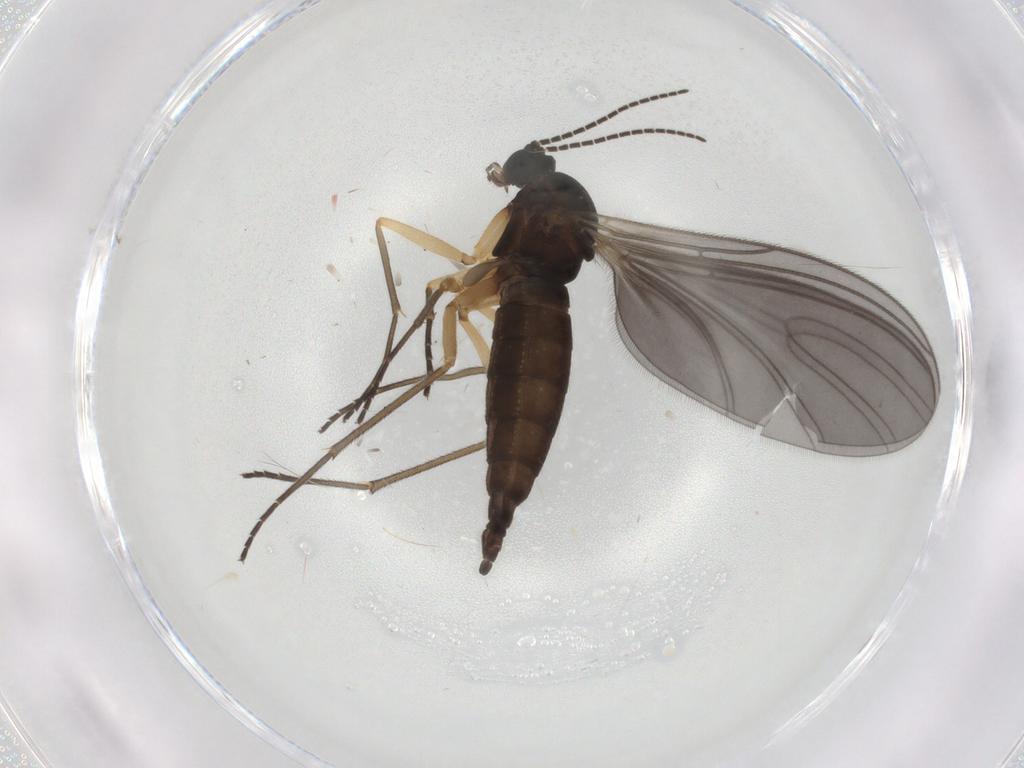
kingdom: Animalia
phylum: Arthropoda
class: Insecta
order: Diptera
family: Sciaridae
